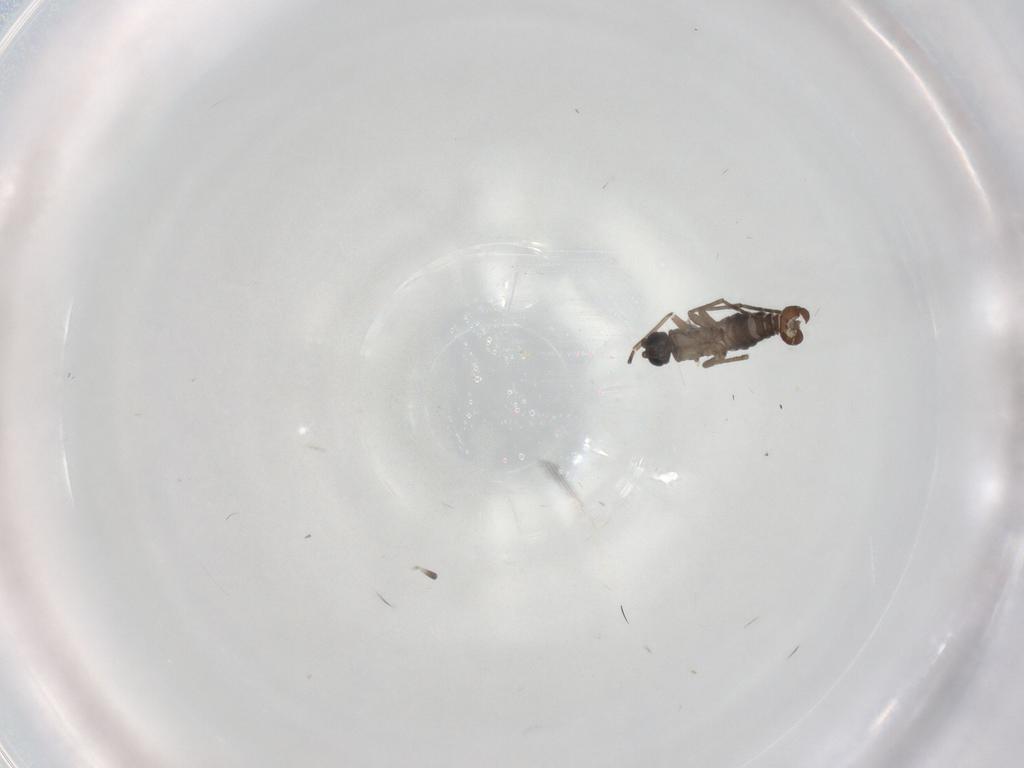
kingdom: Animalia
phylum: Arthropoda
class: Insecta
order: Diptera
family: Sciaridae
